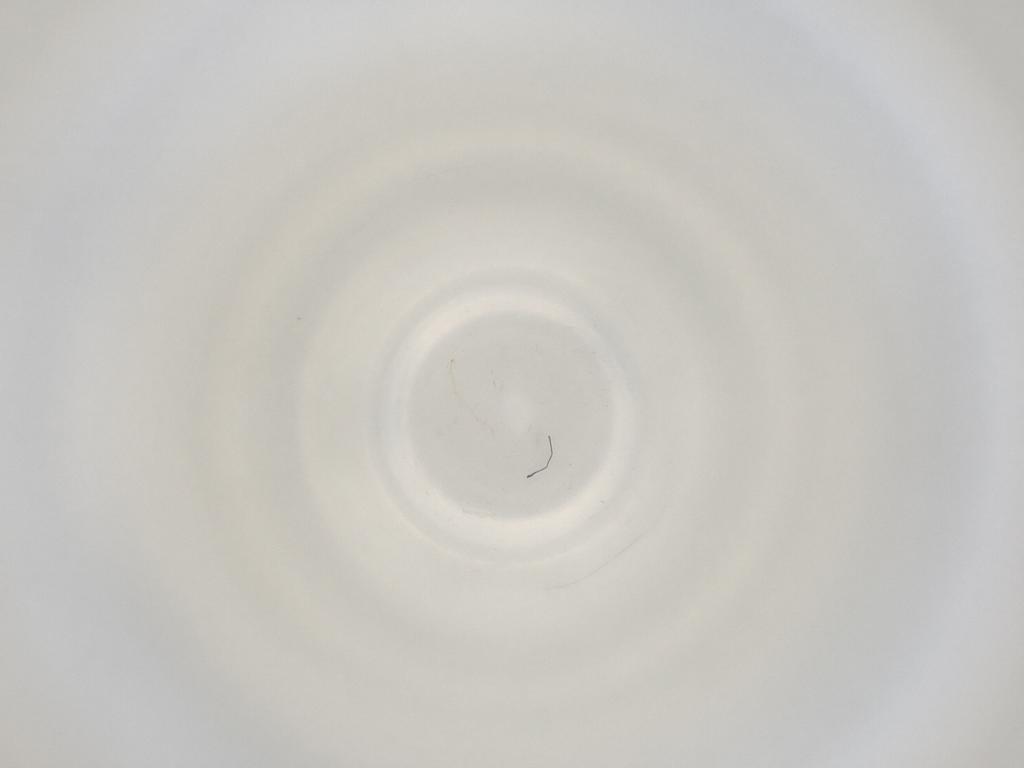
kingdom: Animalia
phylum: Arthropoda
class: Insecta
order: Diptera
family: Cecidomyiidae
